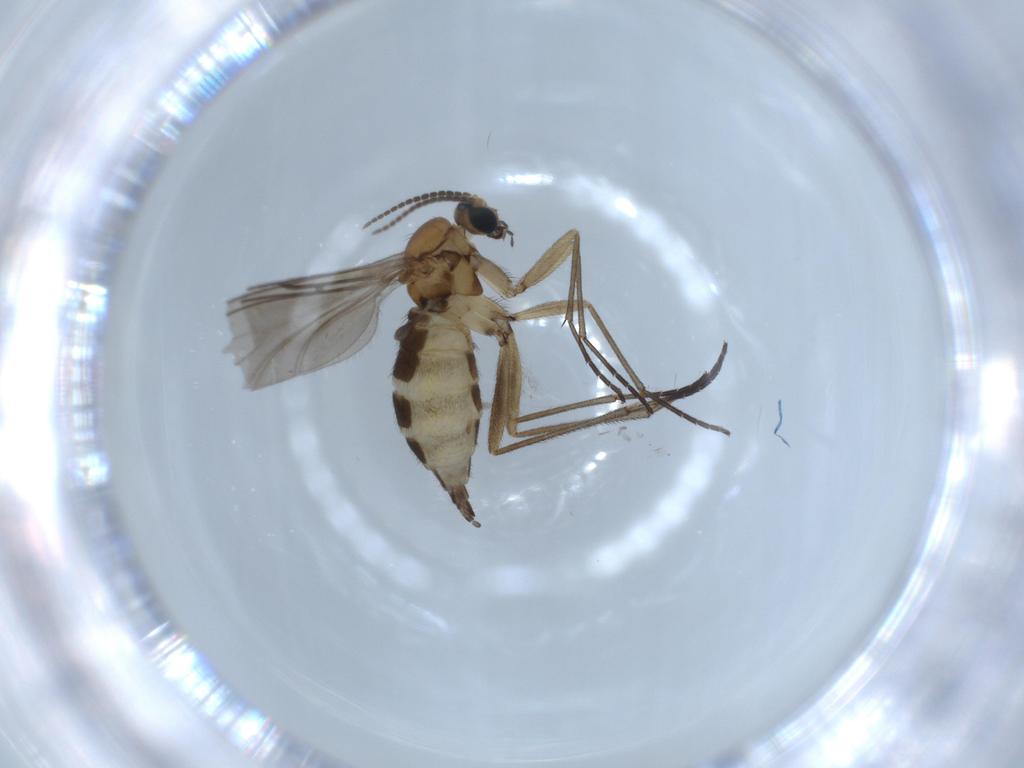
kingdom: Animalia
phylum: Arthropoda
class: Insecta
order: Diptera
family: Sciaridae
